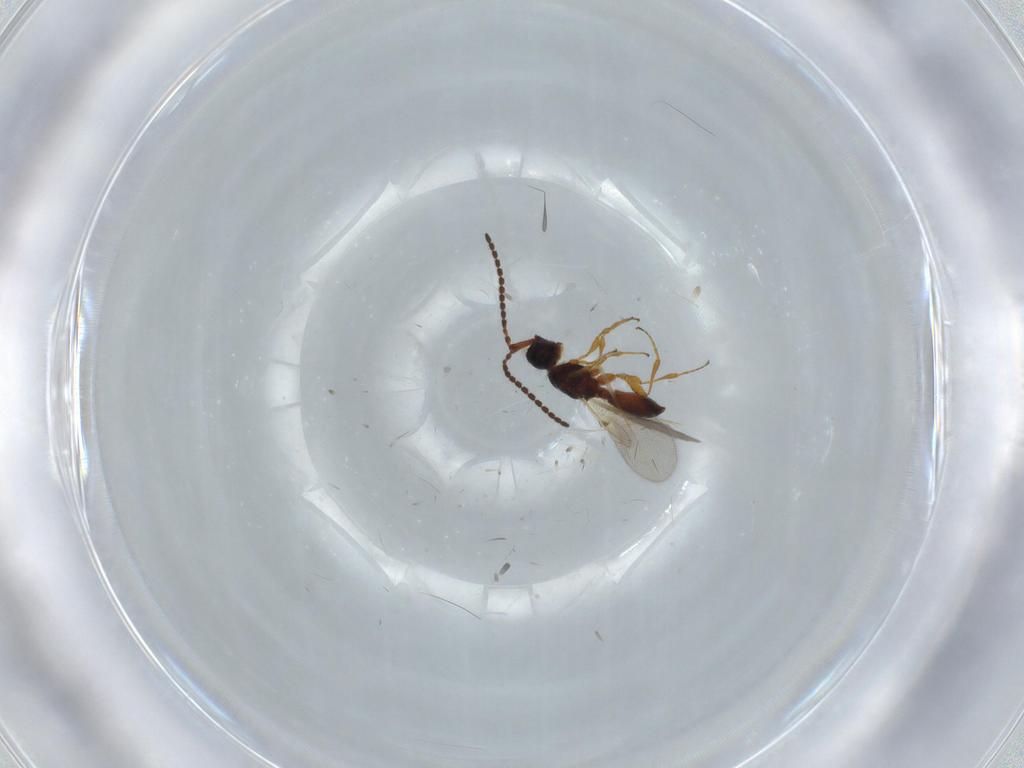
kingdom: Animalia
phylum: Arthropoda
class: Insecta
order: Hymenoptera
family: Diapriidae
